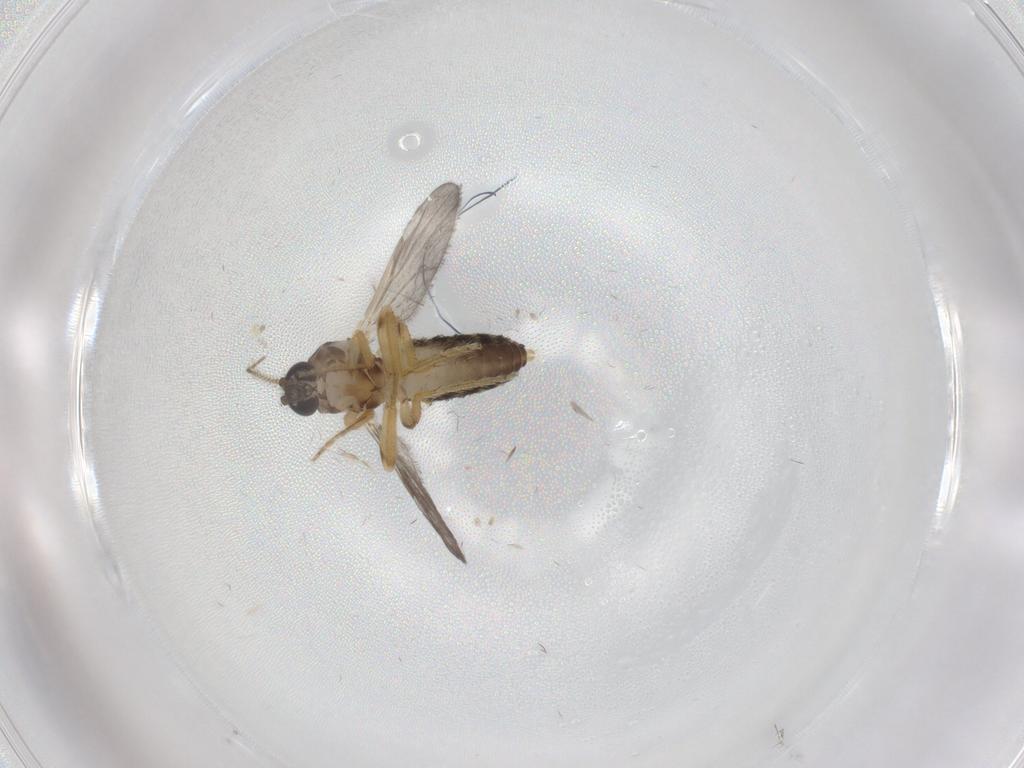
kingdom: Animalia
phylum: Arthropoda
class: Insecta
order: Diptera
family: Ceratopogonidae
